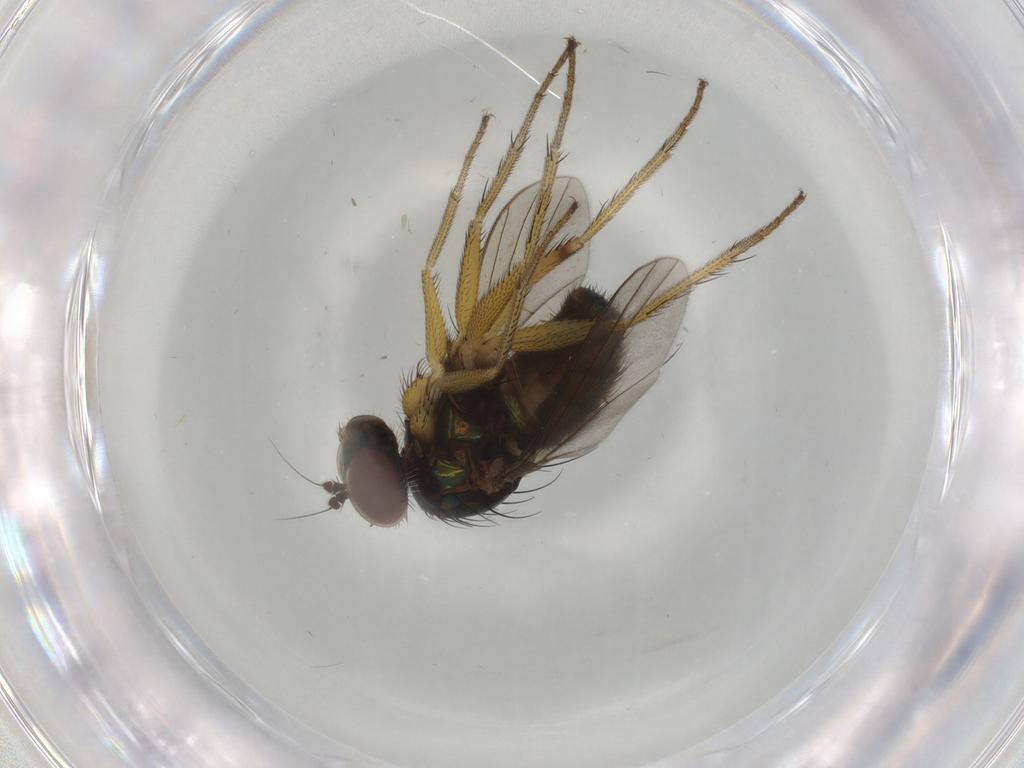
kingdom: Animalia
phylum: Arthropoda
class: Insecta
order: Diptera
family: Dolichopodidae
